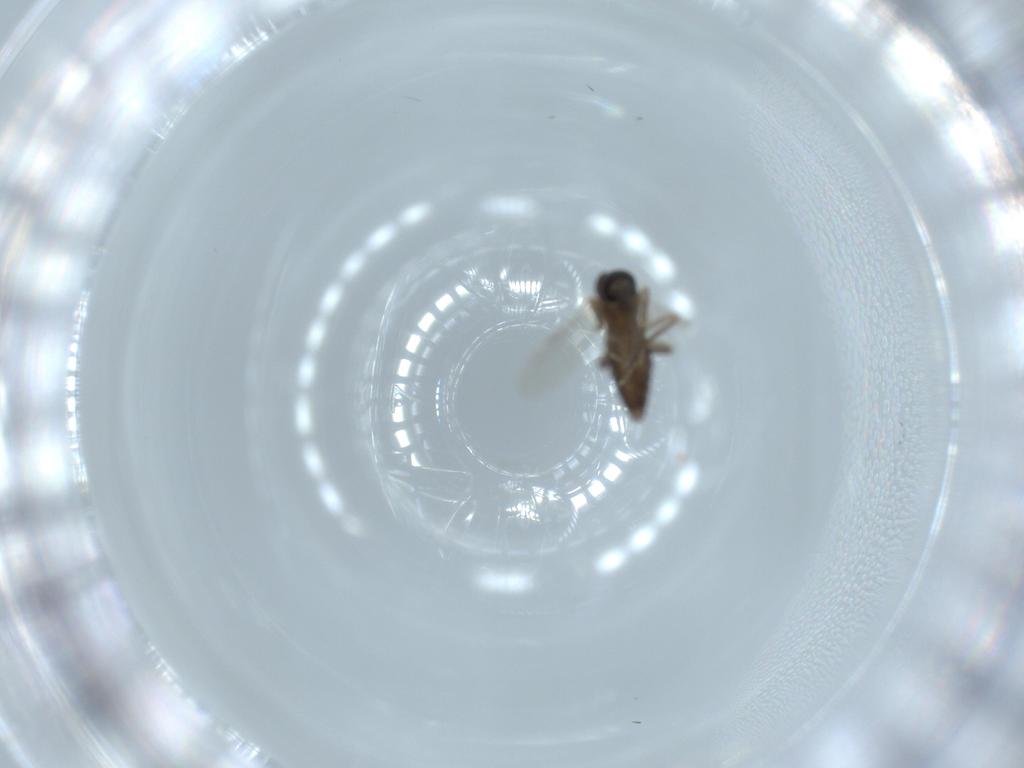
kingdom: Animalia
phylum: Arthropoda
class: Insecta
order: Diptera
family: Ceratopogonidae
